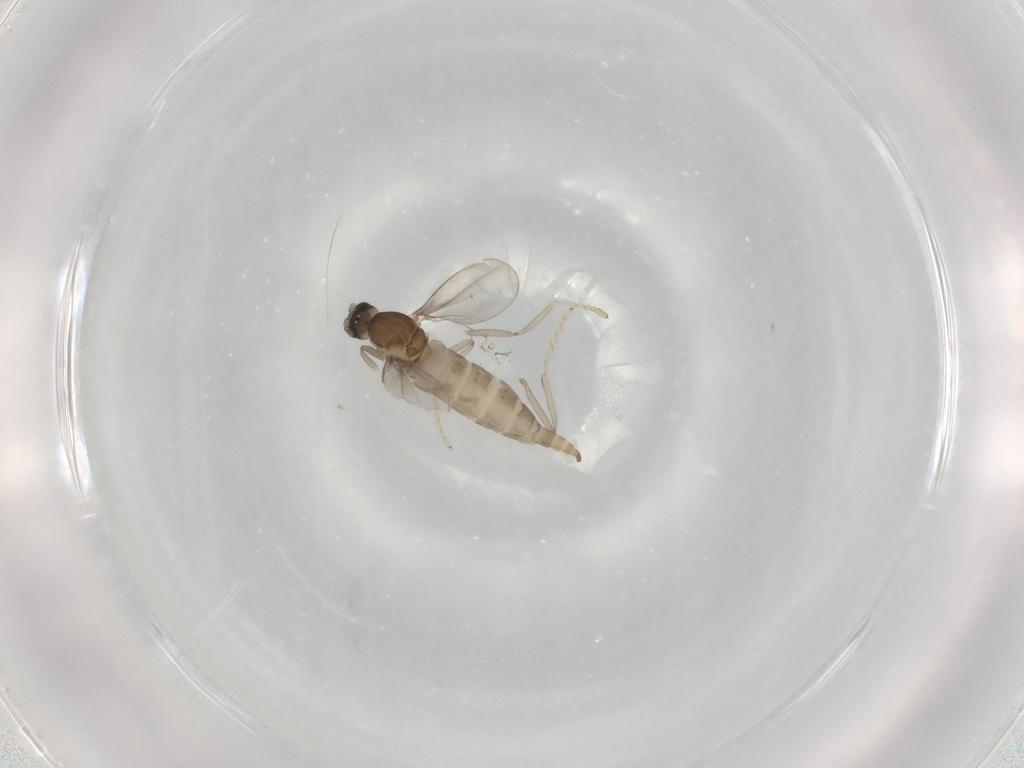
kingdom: Animalia
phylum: Arthropoda
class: Insecta
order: Diptera
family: Cecidomyiidae
